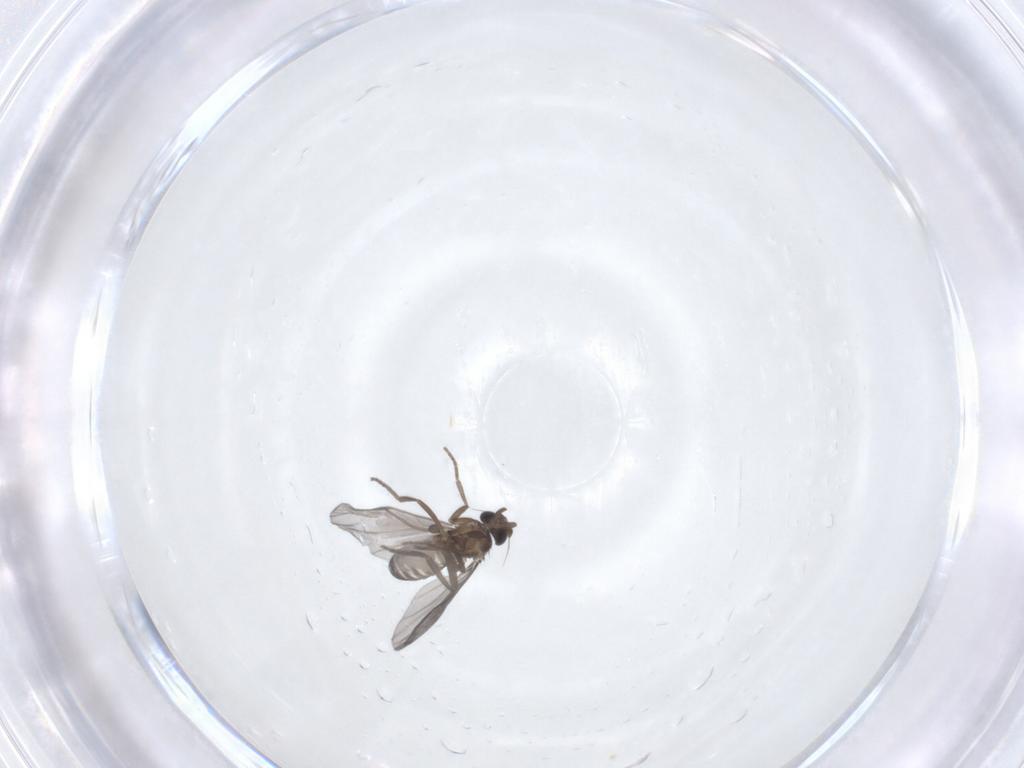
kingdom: Animalia
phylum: Arthropoda
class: Insecta
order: Diptera
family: Phoridae
